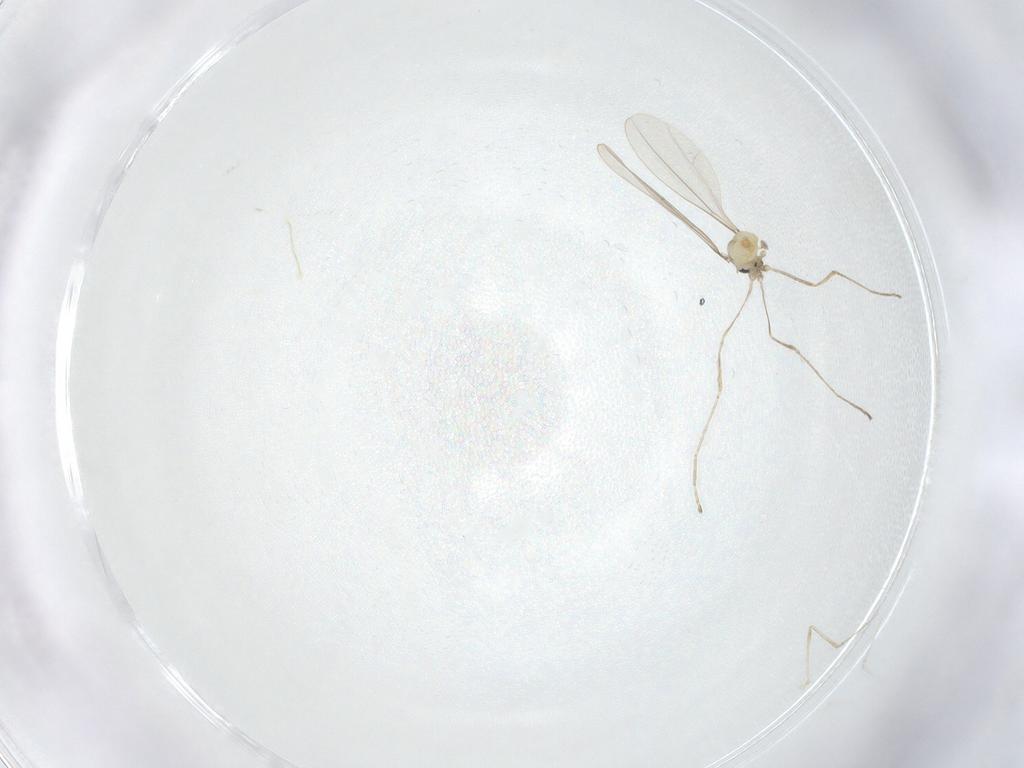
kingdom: Animalia
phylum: Arthropoda
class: Insecta
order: Diptera
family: Cecidomyiidae
